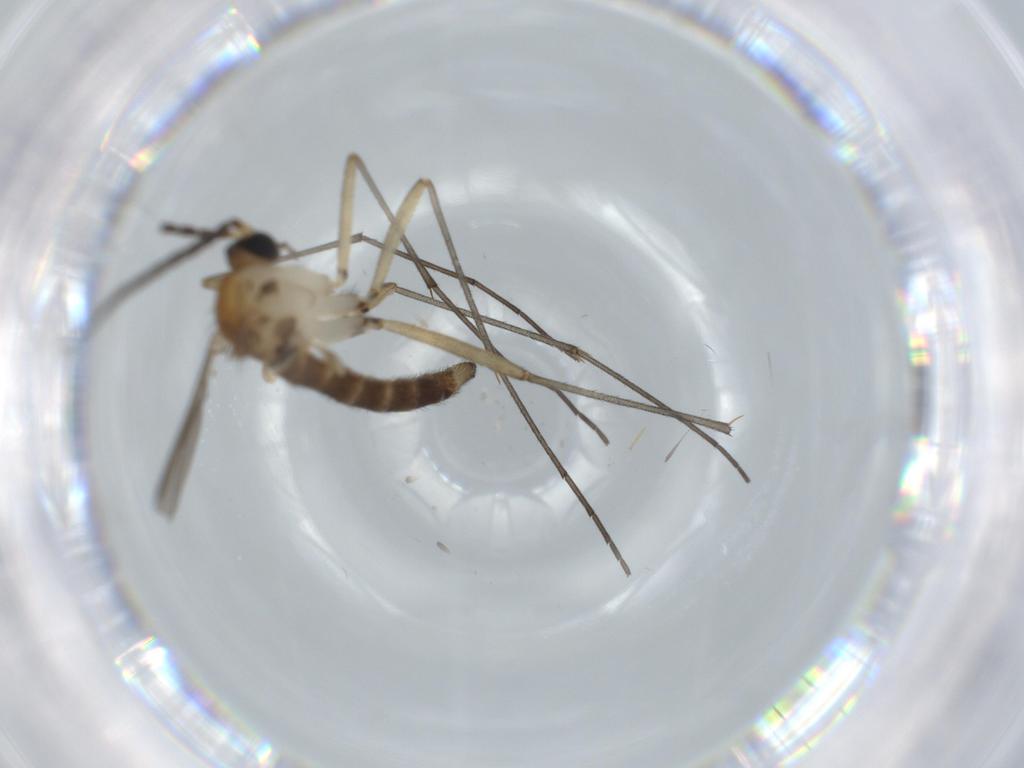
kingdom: Animalia
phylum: Arthropoda
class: Insecta
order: Diptera
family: Sciaridae
